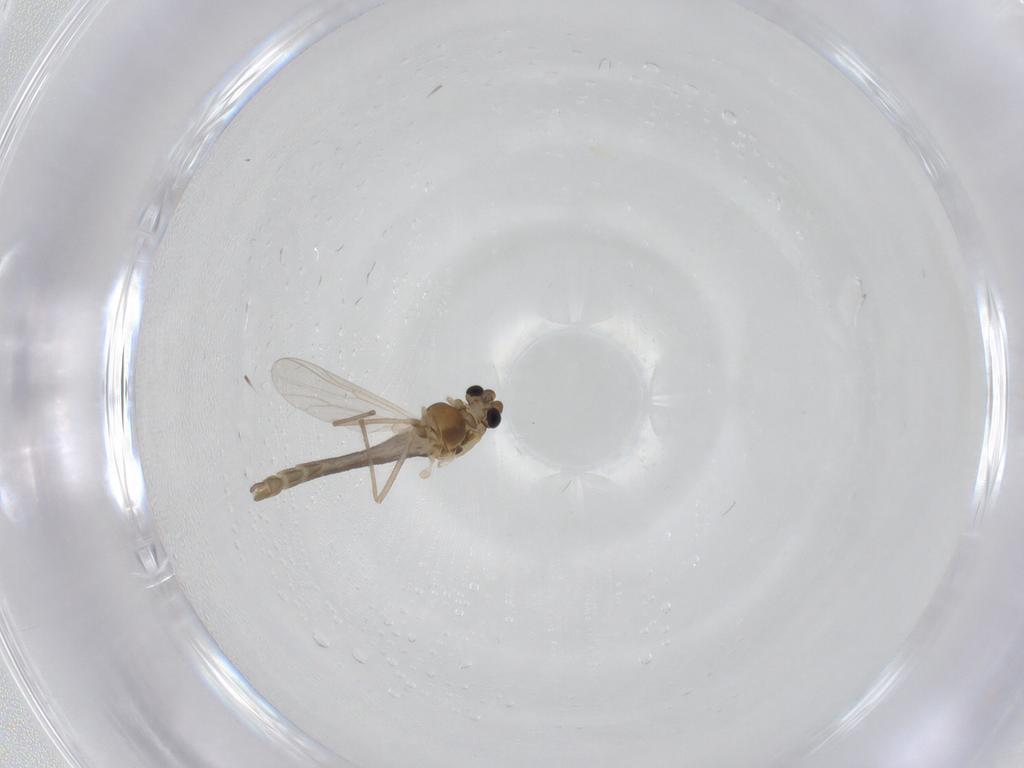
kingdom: Animalia
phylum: Arthropoda
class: Insecta
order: Diptera
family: Chironomidae
